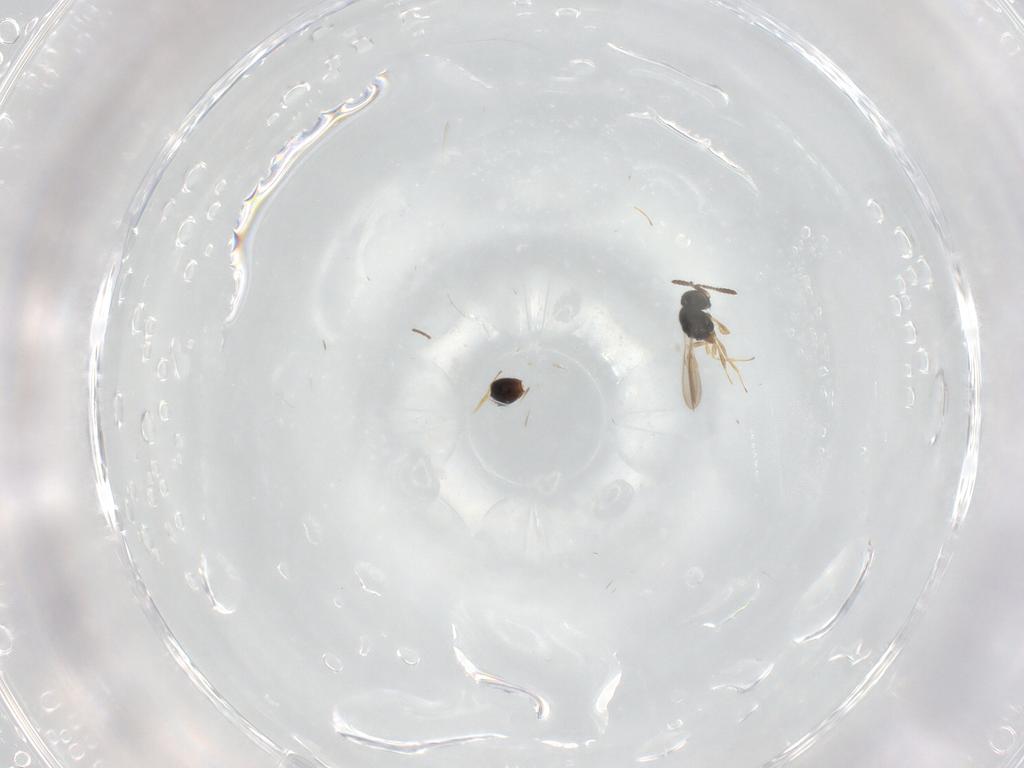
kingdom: Animalia
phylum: Arthropoda
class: Insecta
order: Hymenoptera
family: Scelionidae
